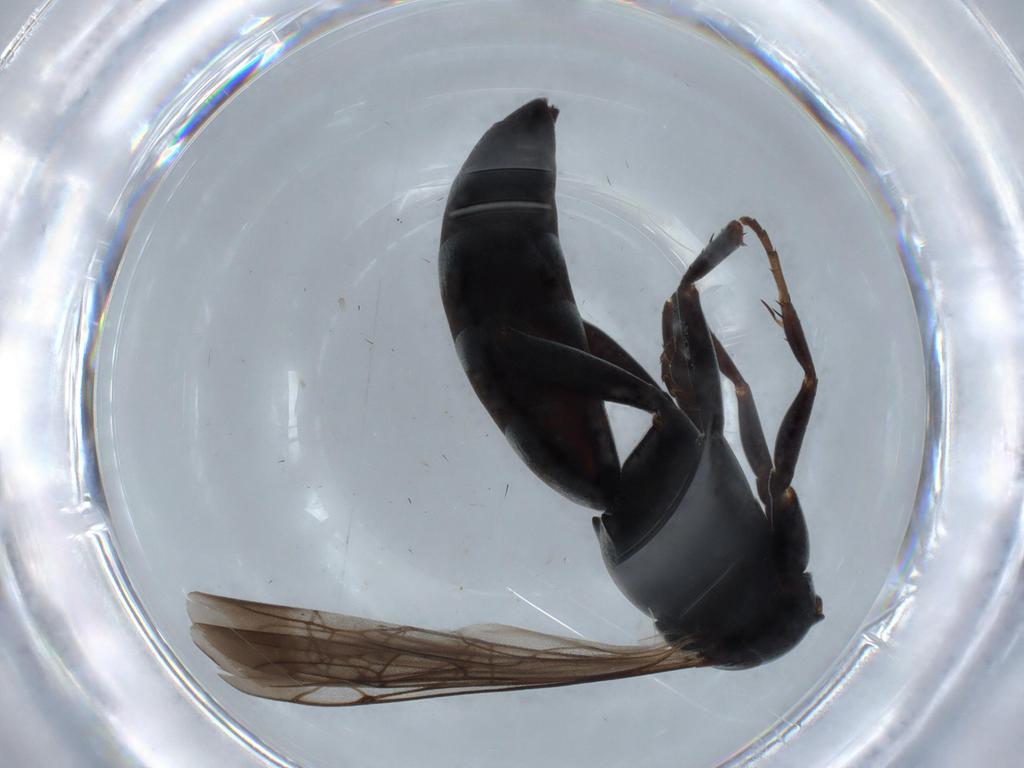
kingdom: Animalia
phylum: Arthropoda
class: Insecta
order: Hymenoptera
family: Pompilidae
